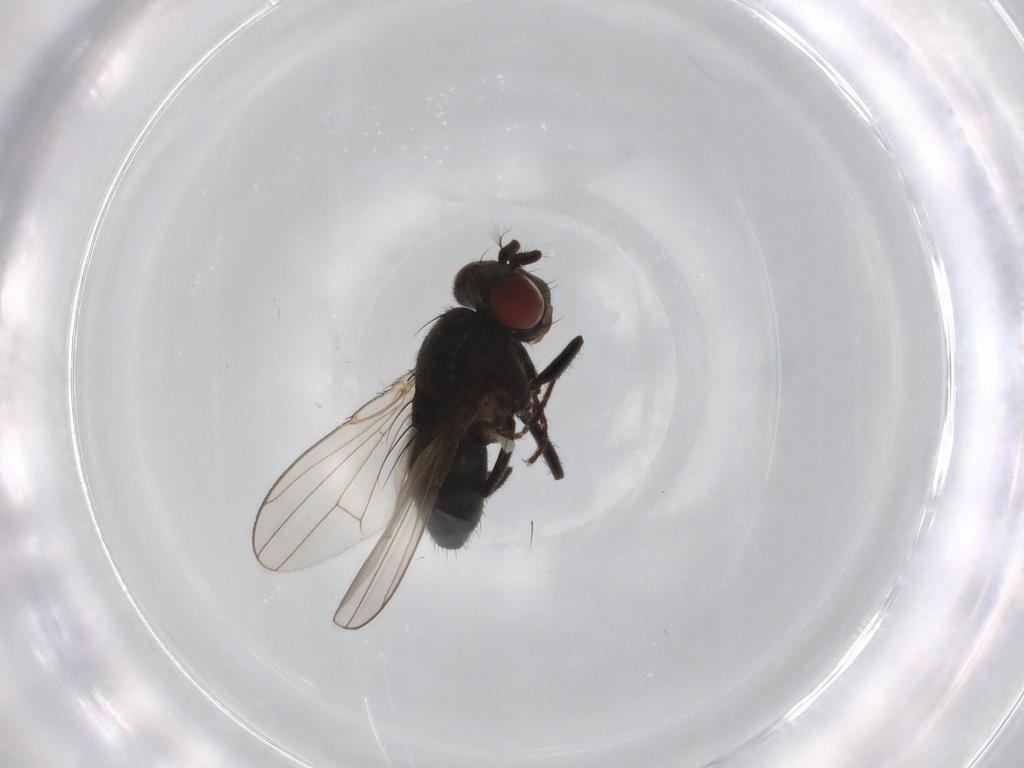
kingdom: Animalia
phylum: Arthropoda
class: Insecta
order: Diptera
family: Ephydridae
